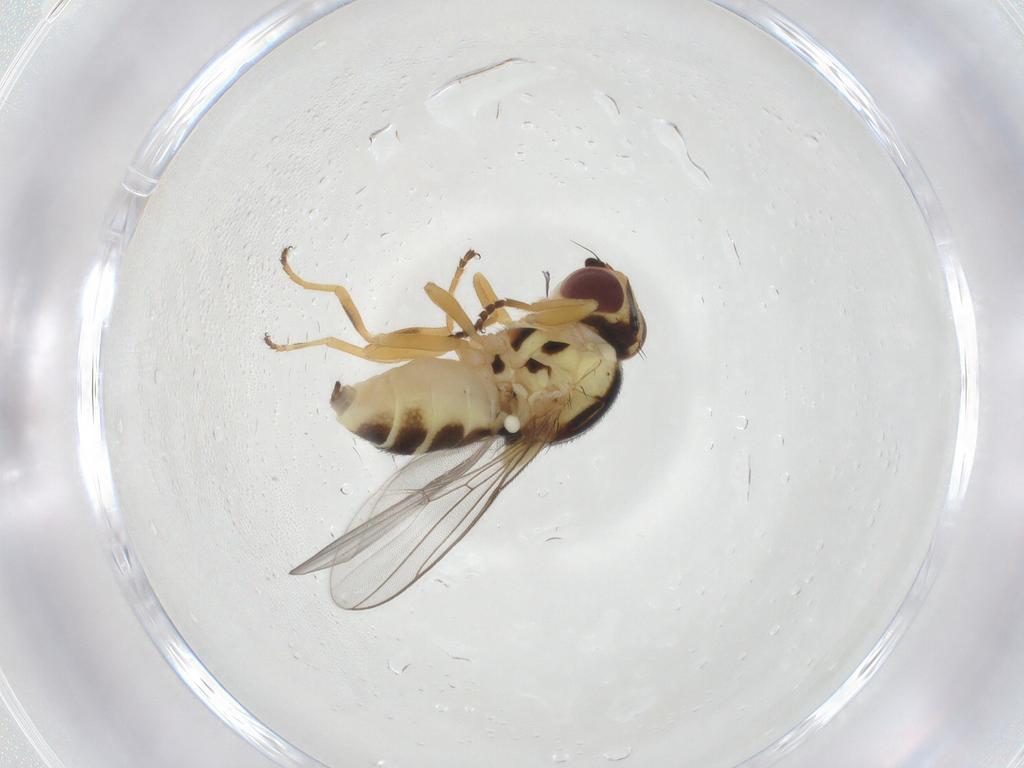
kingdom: Animalia
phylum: Arthropoda
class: Insecta
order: Diptera
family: Chloropidae
